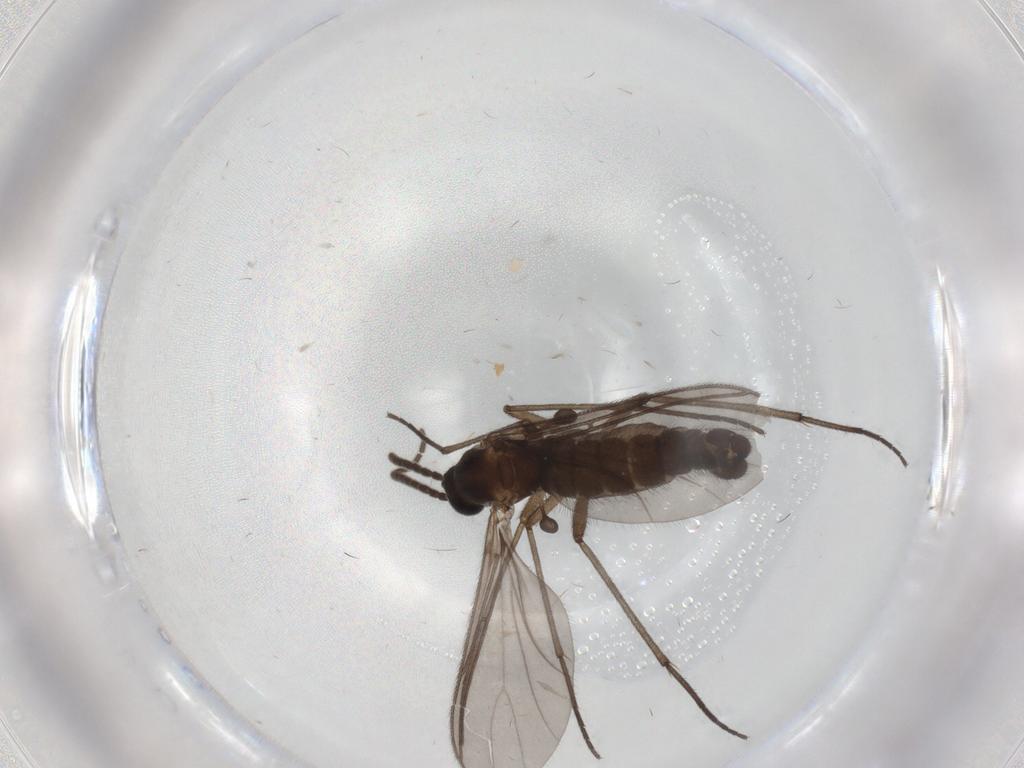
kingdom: Animalia
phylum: Arthropoda
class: Insecta
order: Diptera
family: Sciaridae
